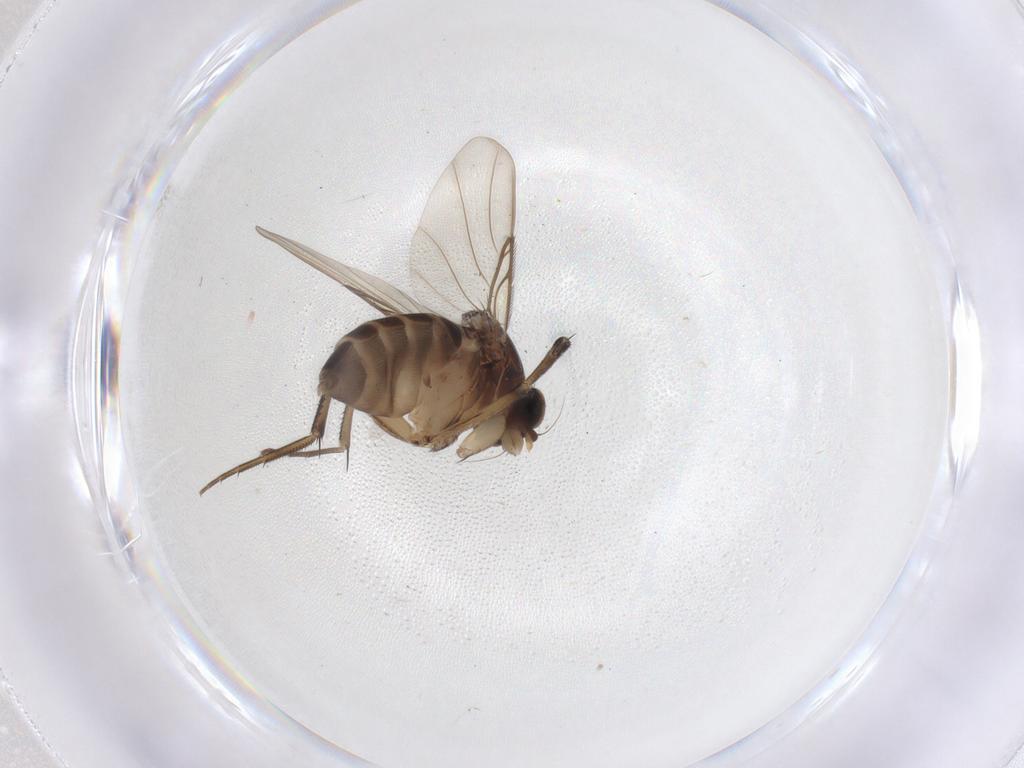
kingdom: Animalia
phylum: Arthropoda
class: Insecta
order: Diptera
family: Phoridae
